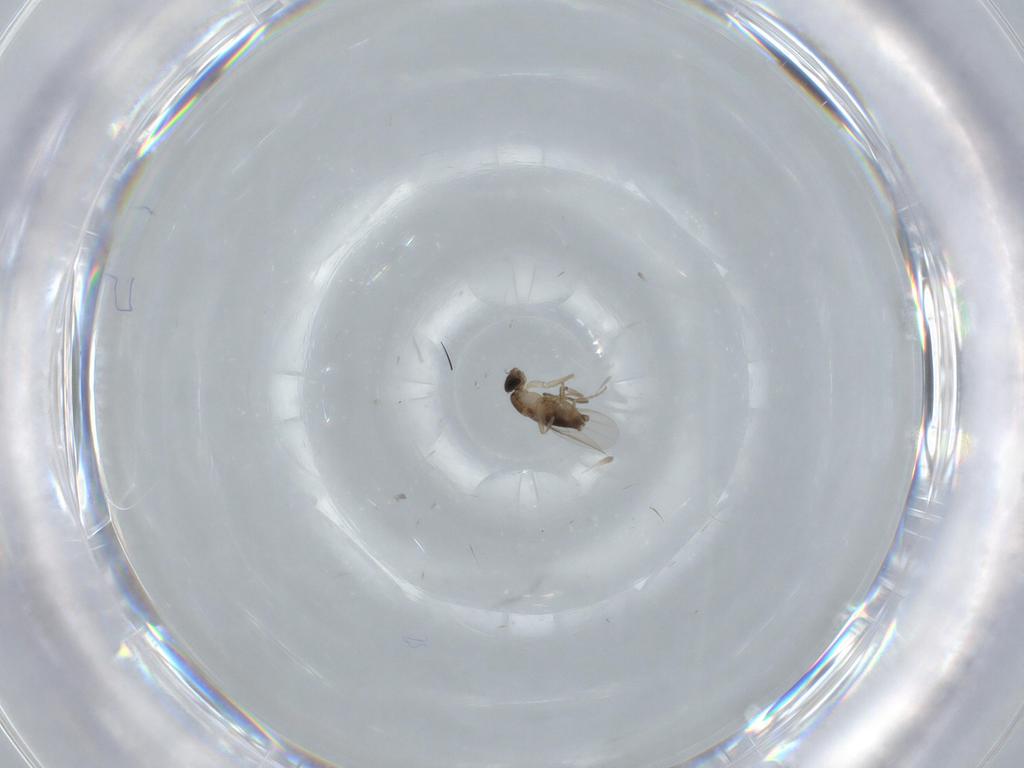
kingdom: Animalia
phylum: Arthropoda
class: Insecta
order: Diptera
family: Phoridae
